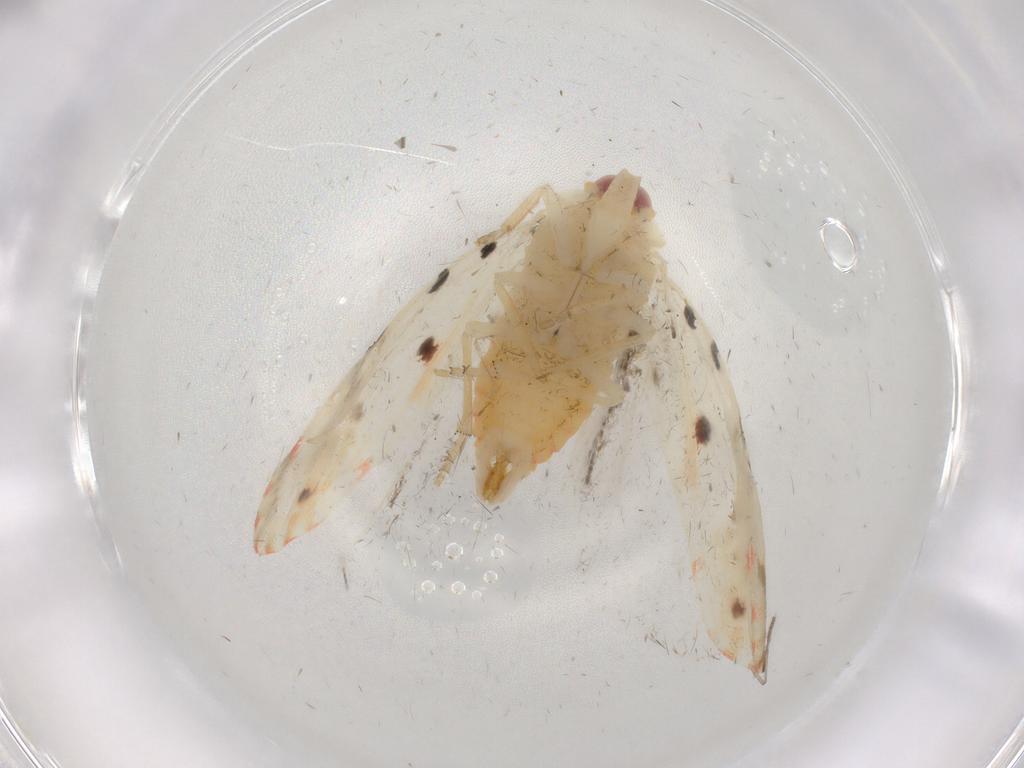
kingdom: Animalia
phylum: Arthropoda
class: Insecta
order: Hemiptera
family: Derbidae
